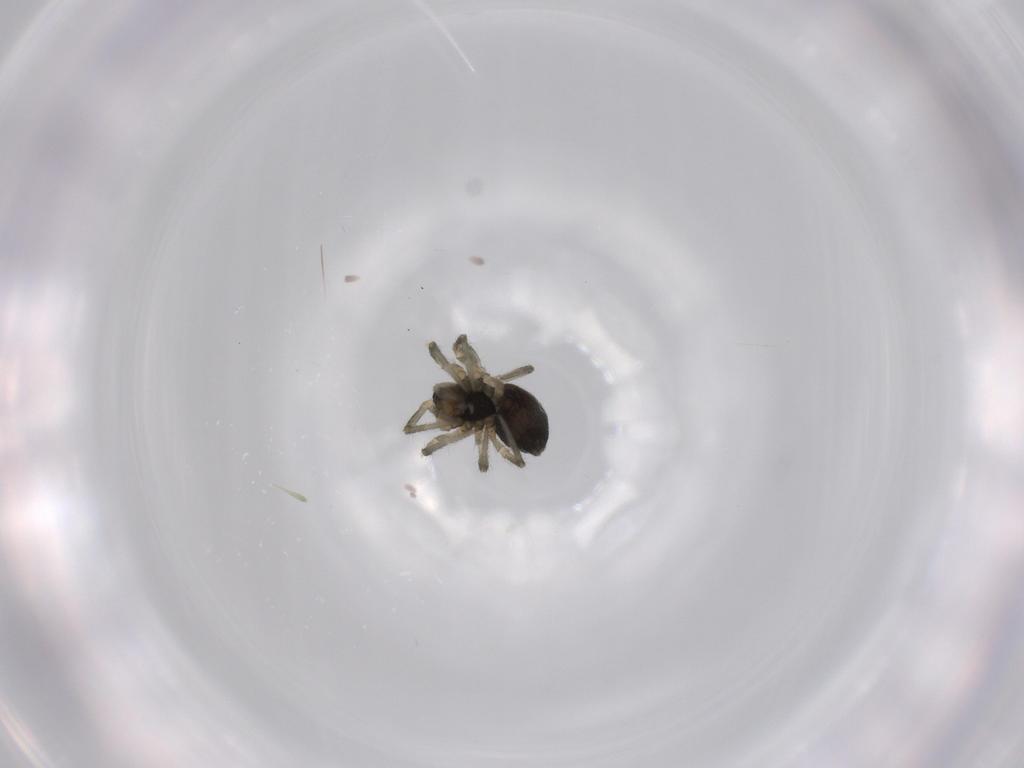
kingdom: Animalia
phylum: Arthropoda
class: Arachnida
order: Araneae
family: Linyphiidae
